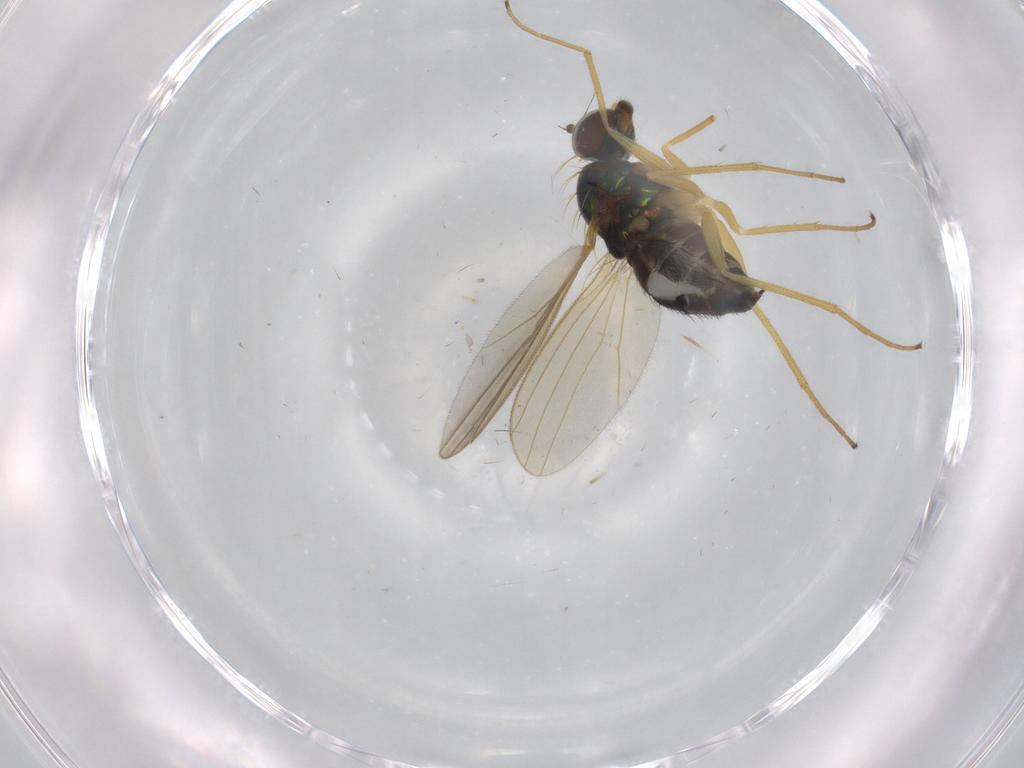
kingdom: Animalia
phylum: Arthropoda
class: Insecta
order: Diptera
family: Dolichopodidae
